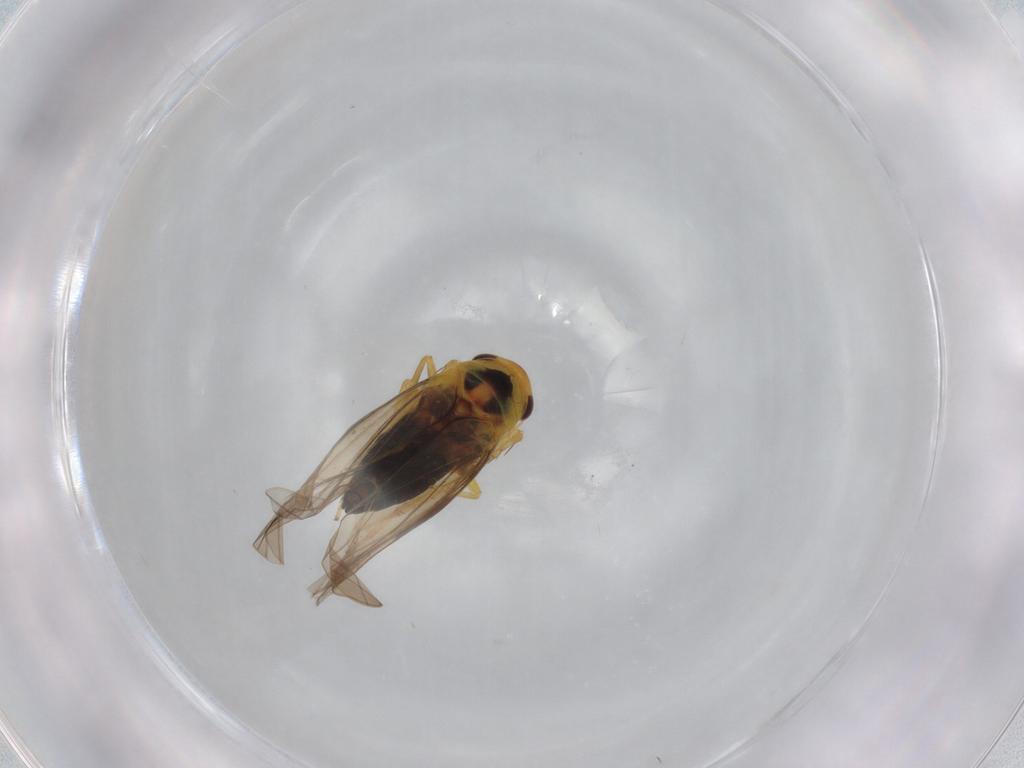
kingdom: Animalia
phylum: Arthropoda
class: Insecta
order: Hemiptera
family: Cicadellidae
